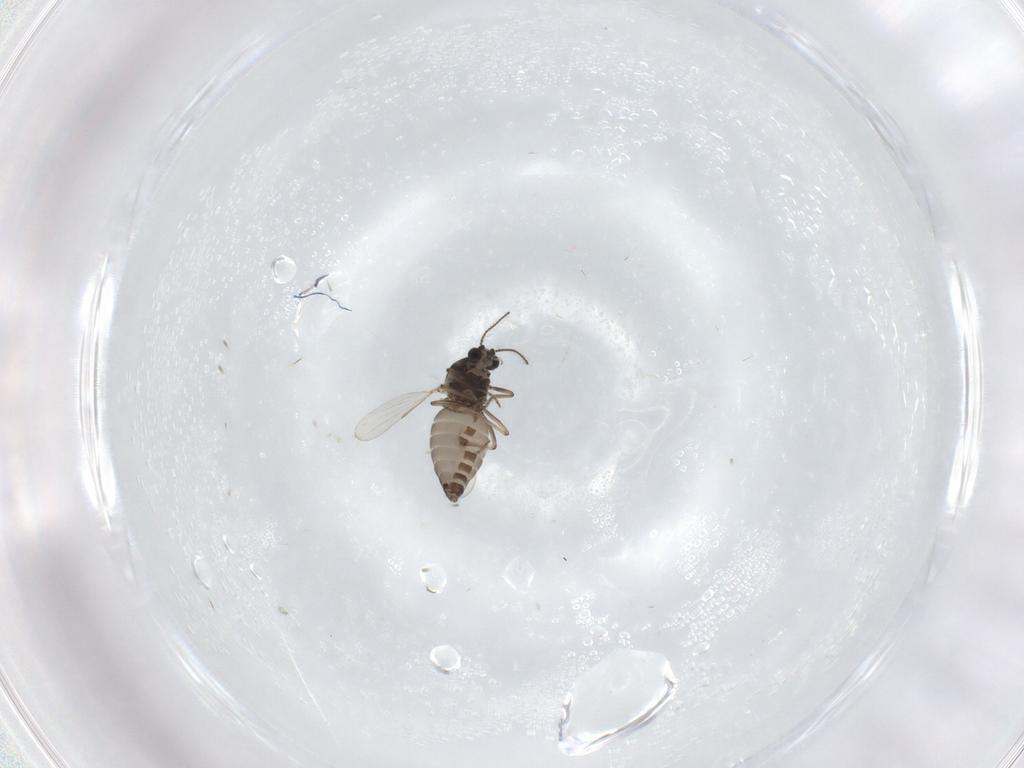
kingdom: Animalia
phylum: Arthropoda
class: Insecta
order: Diptera
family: Ceratopogonidae
